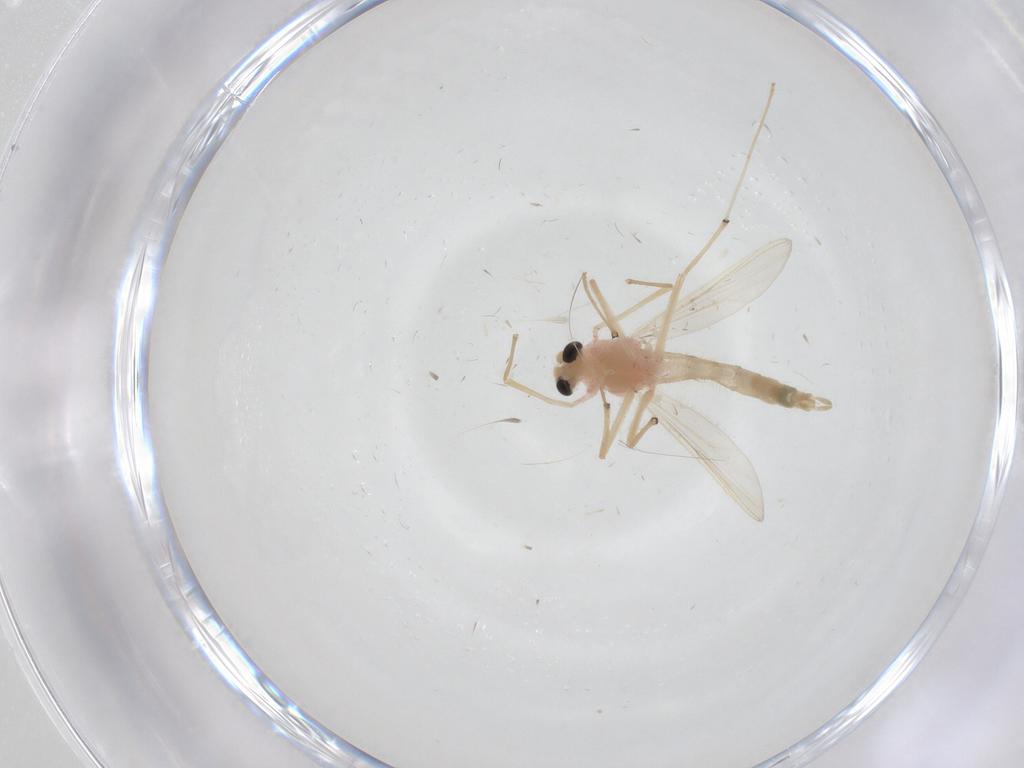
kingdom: Animalia
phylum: Arthropoda
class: Insecta
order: Diptera
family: Chironomidae
